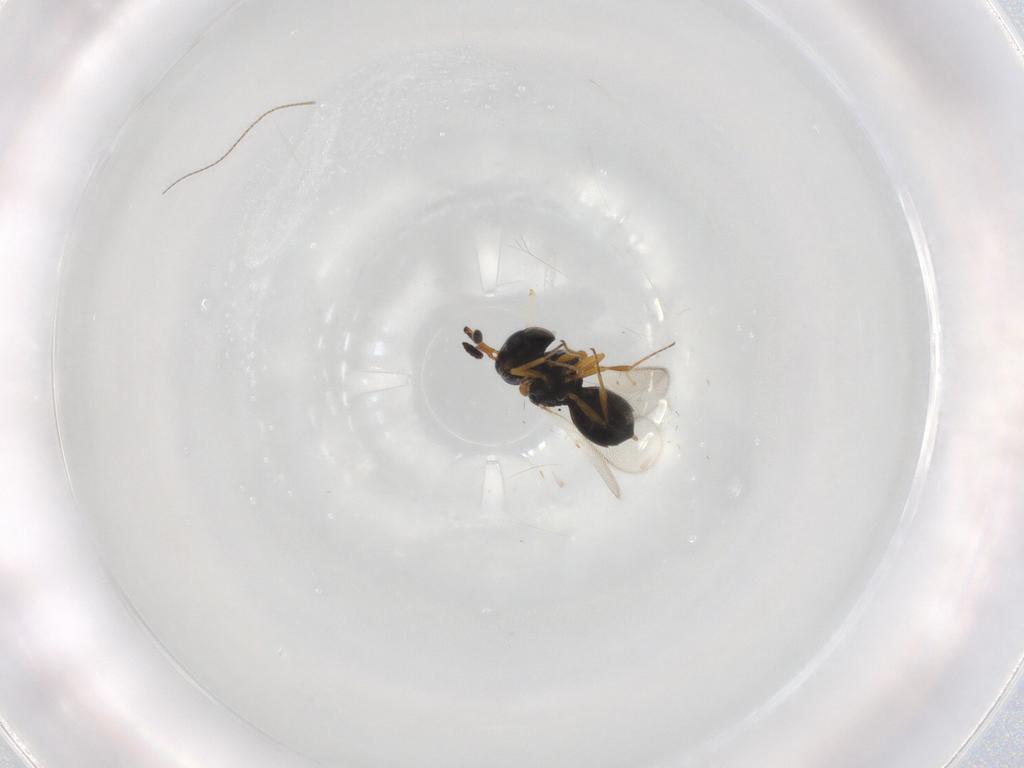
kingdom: Animalia
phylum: Arthropoda
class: Insecta
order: Hymenoptera
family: Scelionidae
